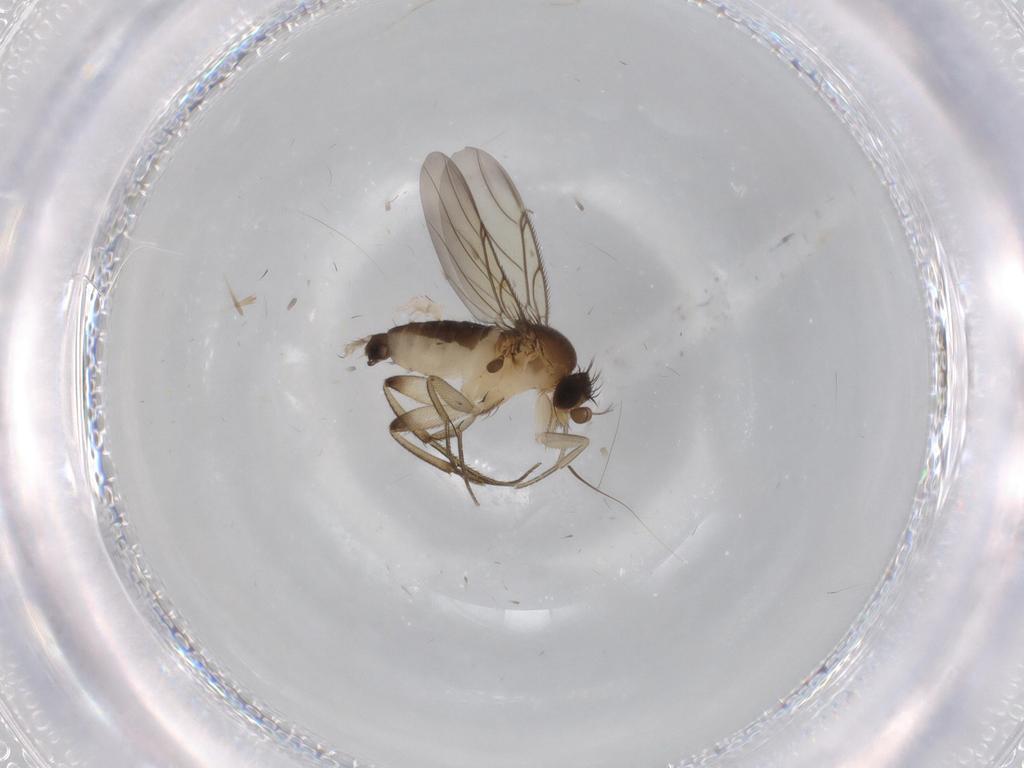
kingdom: Animalia
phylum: Arthropoda
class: Insecta
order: Diptera
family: Phoridae
